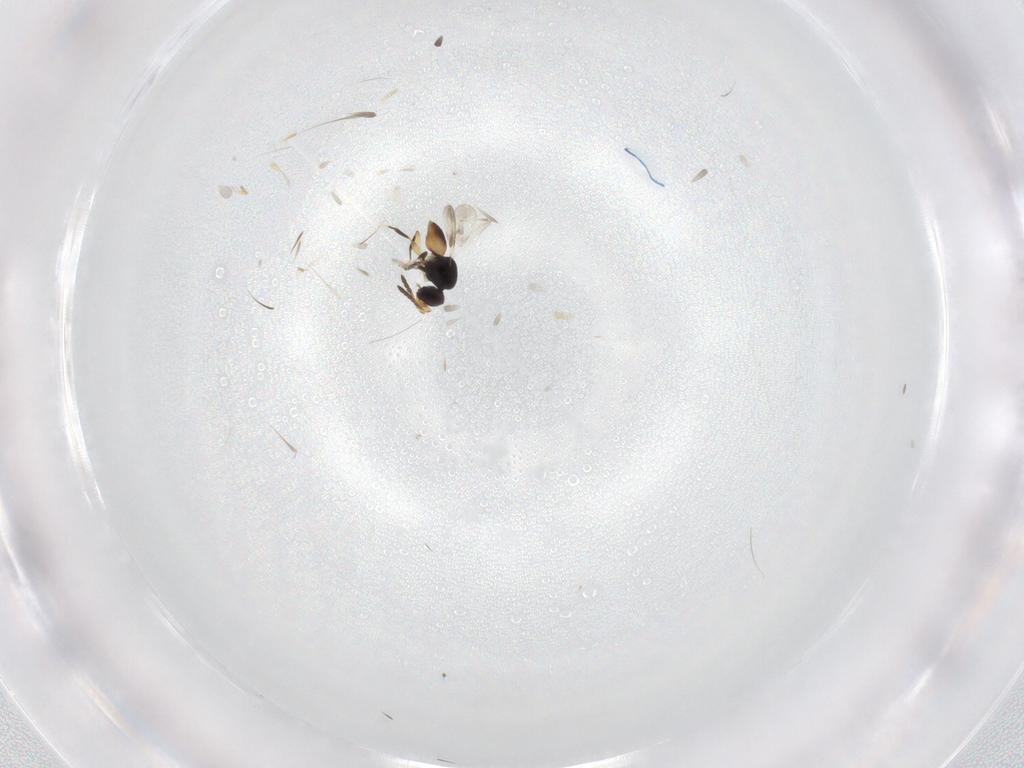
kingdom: Animalia
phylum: Arthropoda
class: Insecta
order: Hymenoptera
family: Ceraphronidae
